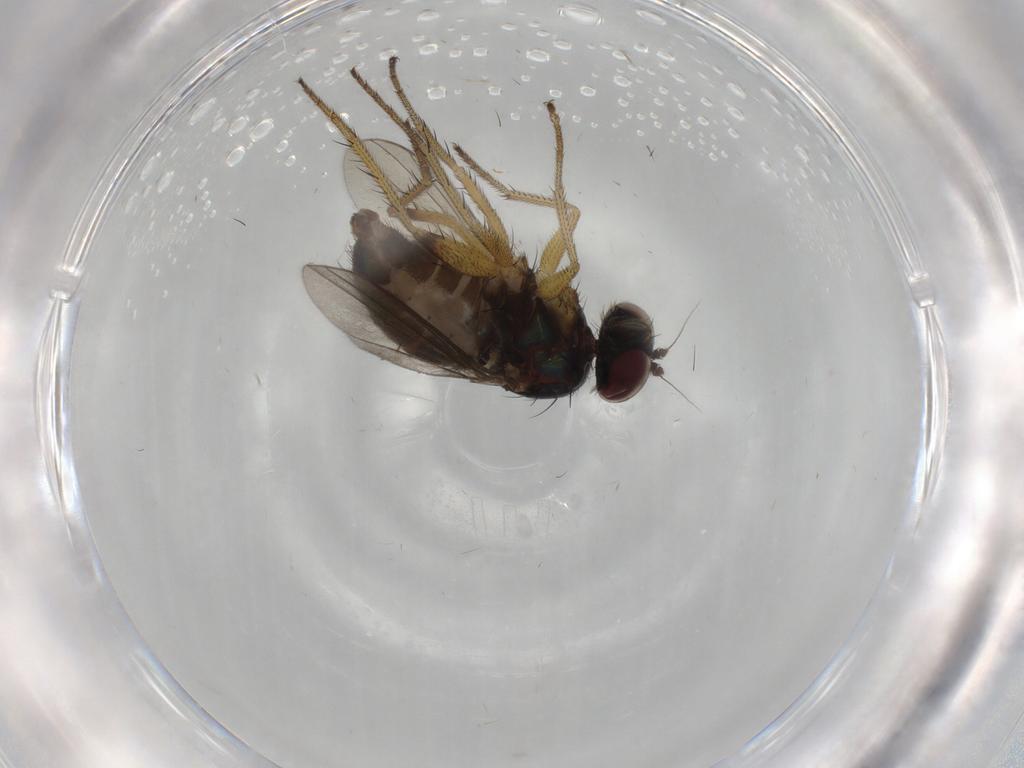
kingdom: Animalia
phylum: Arthropoda
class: Insecta
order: Diptera
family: Dolichopodidae
